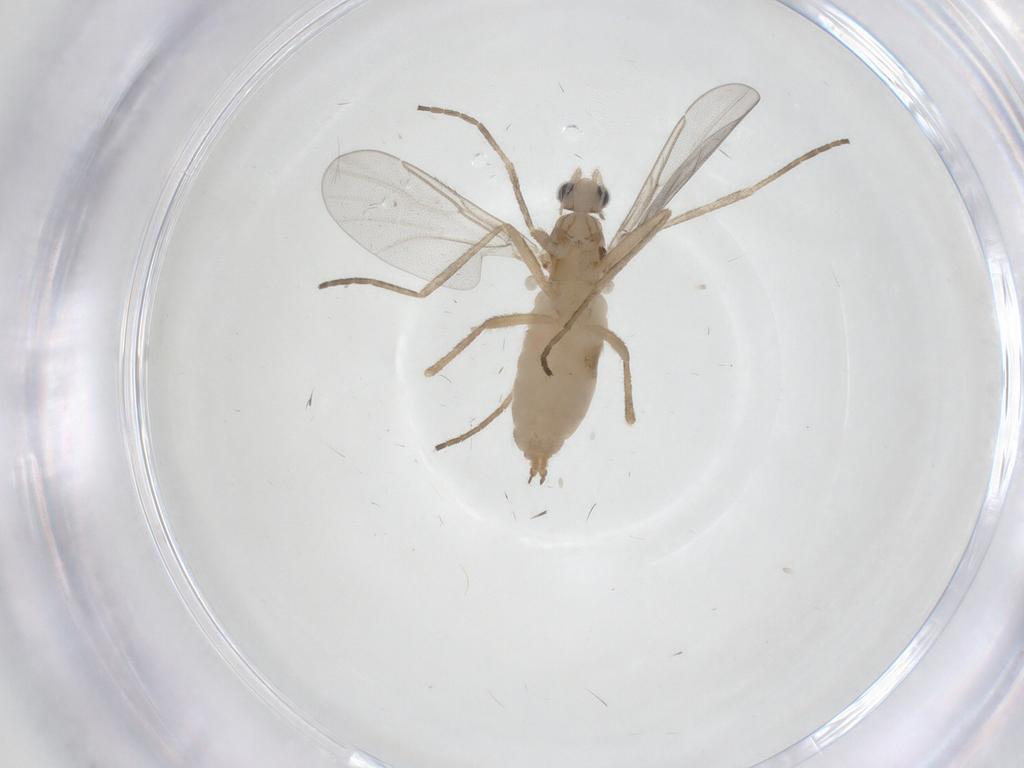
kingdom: Animalia
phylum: Arthropoda
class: Insecta
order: Diptera
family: Cecidomyiidae
